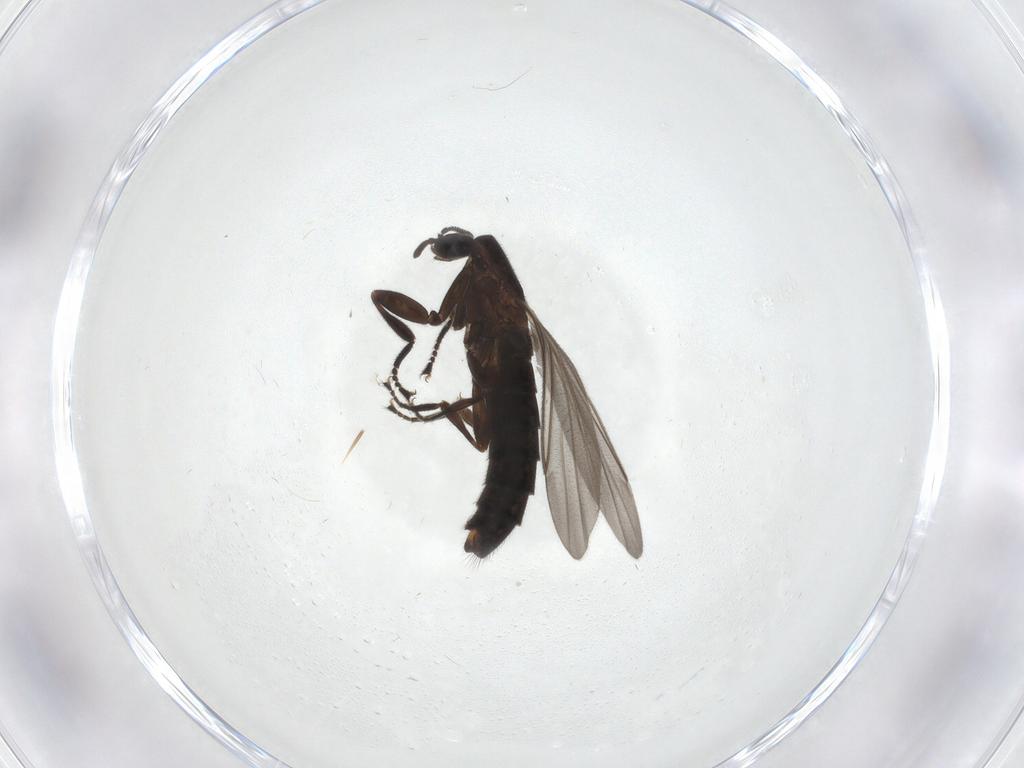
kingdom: Animalia
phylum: Arthropoda
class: Insecta
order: Diptera
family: Scatopsidae
